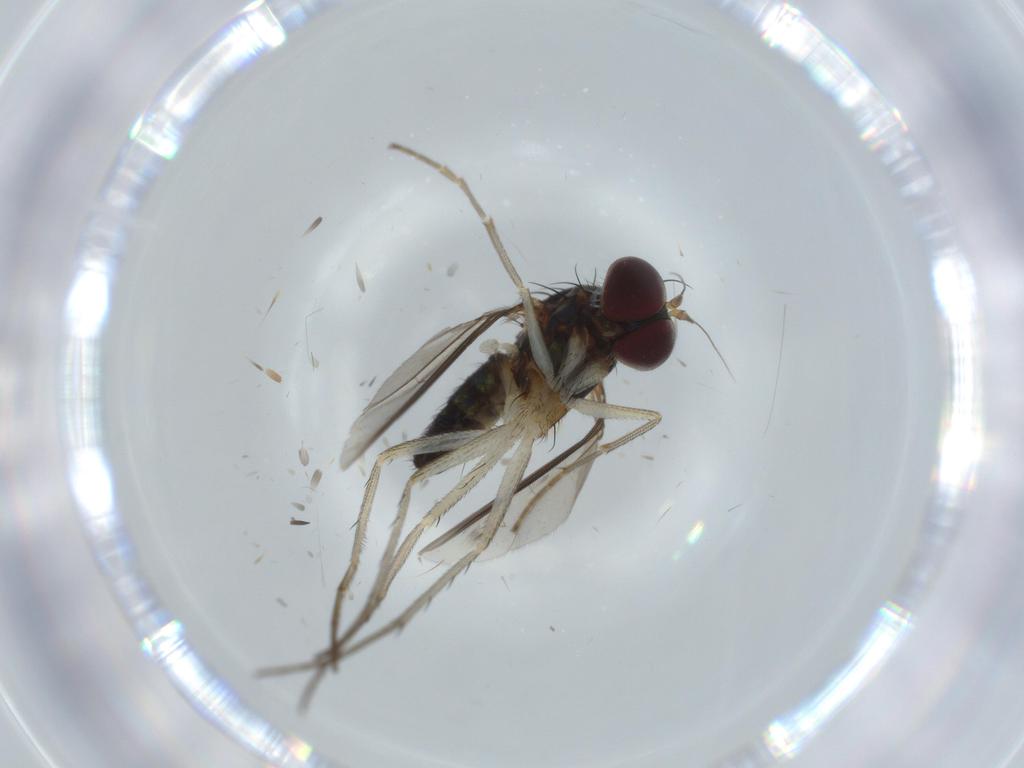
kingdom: Animalia
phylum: Arthropoda
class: Insecta
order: Diptera
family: Dolichopodidae
